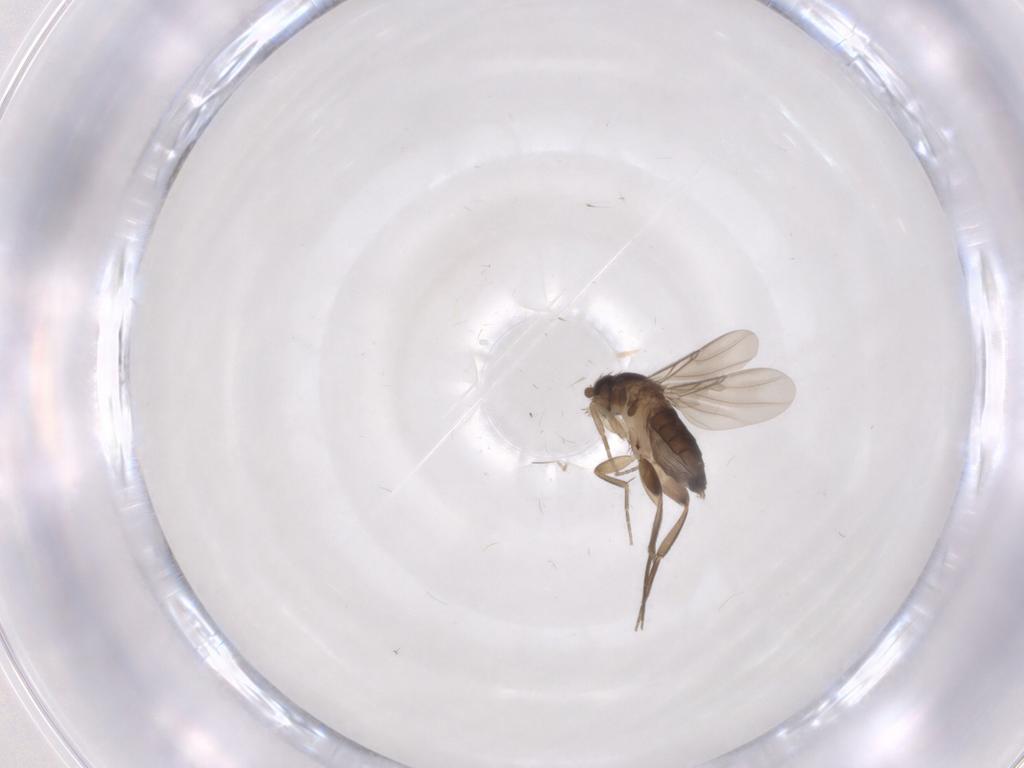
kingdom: Animalia
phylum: Arthropoda
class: Insecta
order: Diptera
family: Phoridae
